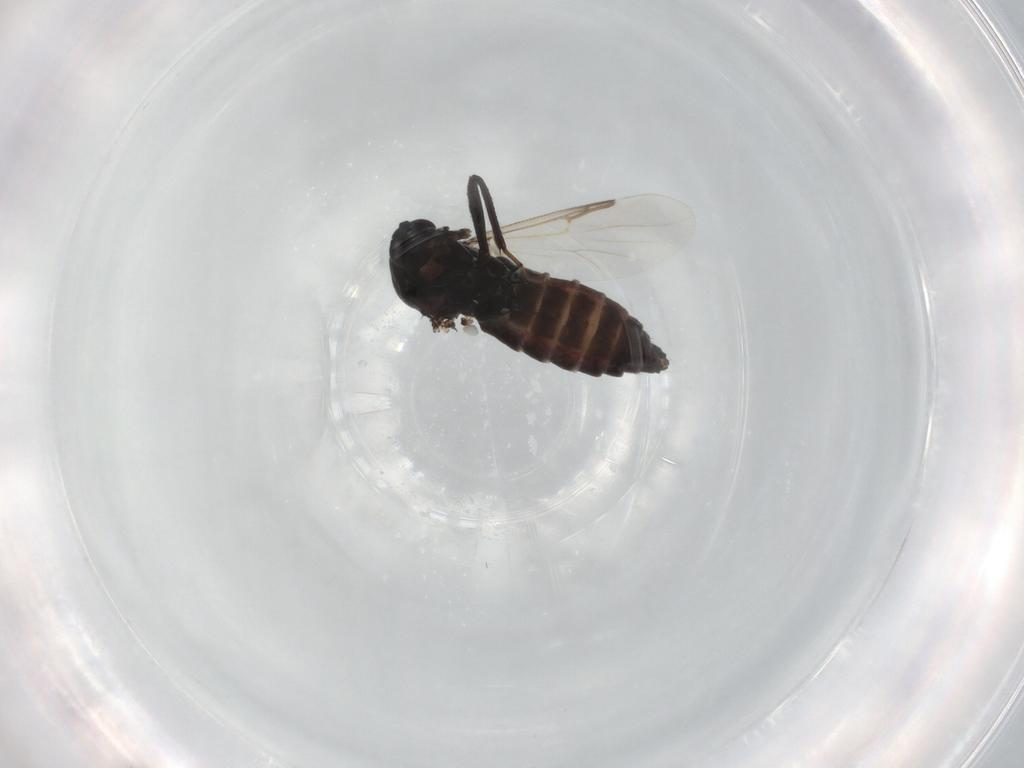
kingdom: Animalia
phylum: Arthropoda
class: Insecta
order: Diptera
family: Ceratopogonidae
